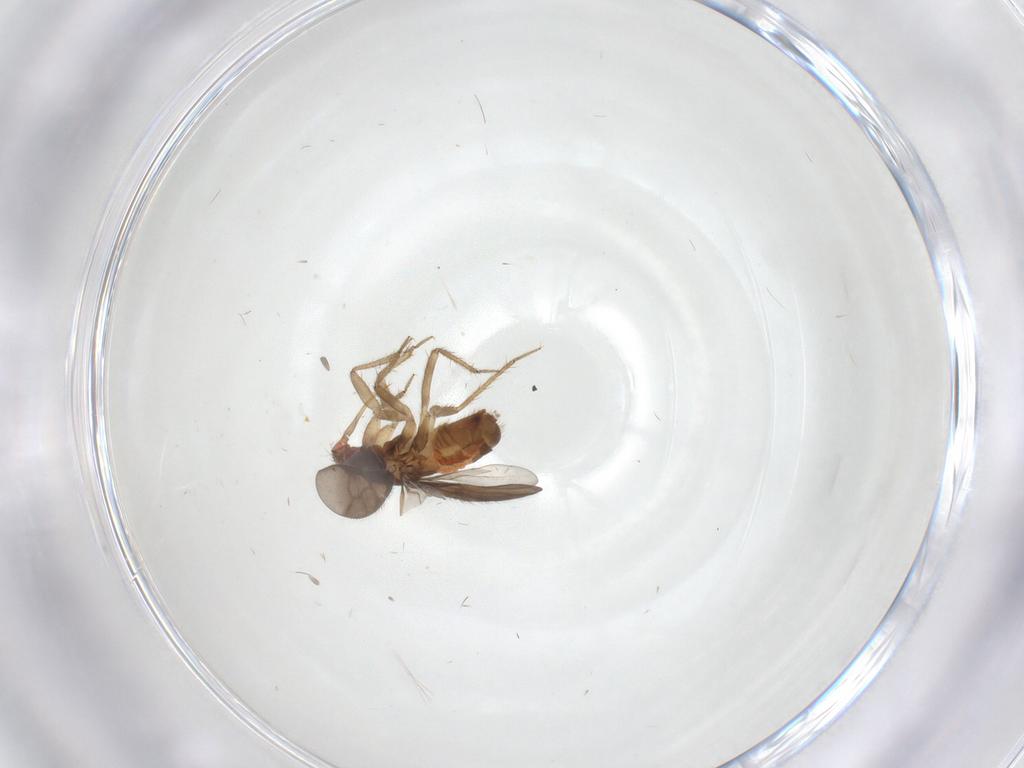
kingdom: Animalia
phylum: Arthropoda
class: Insecta
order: Hemiptera
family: Ceratocombidae
